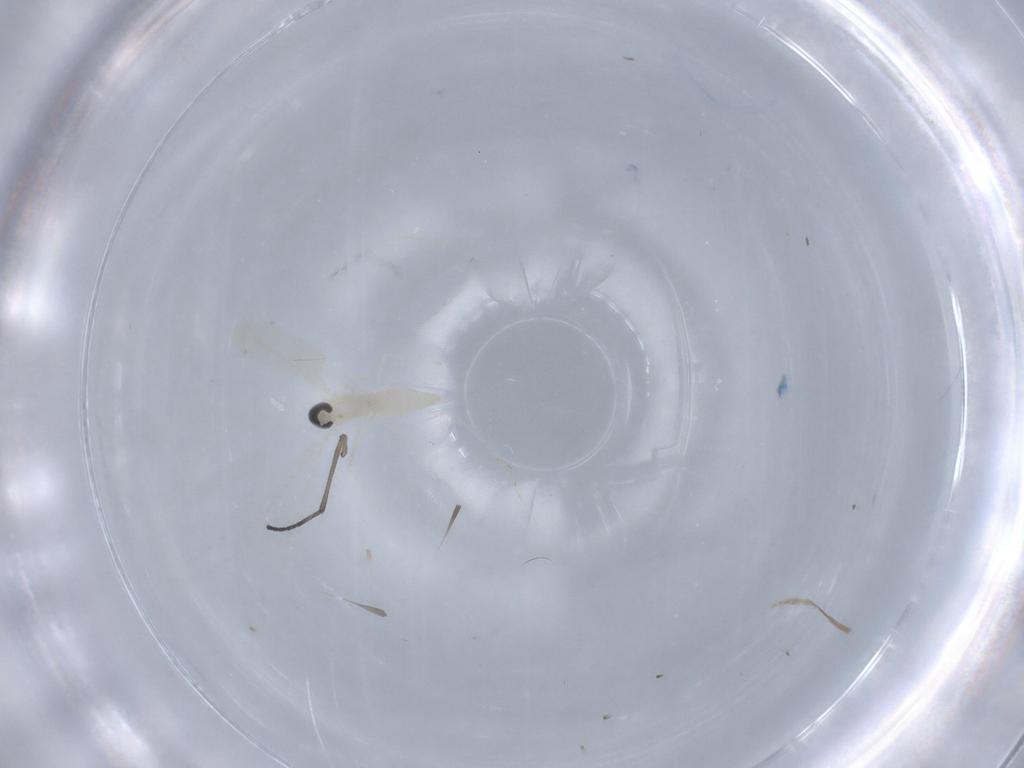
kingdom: Animalia
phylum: Arthropoda
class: Insecta
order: Diptera
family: Cecidomyiidae
